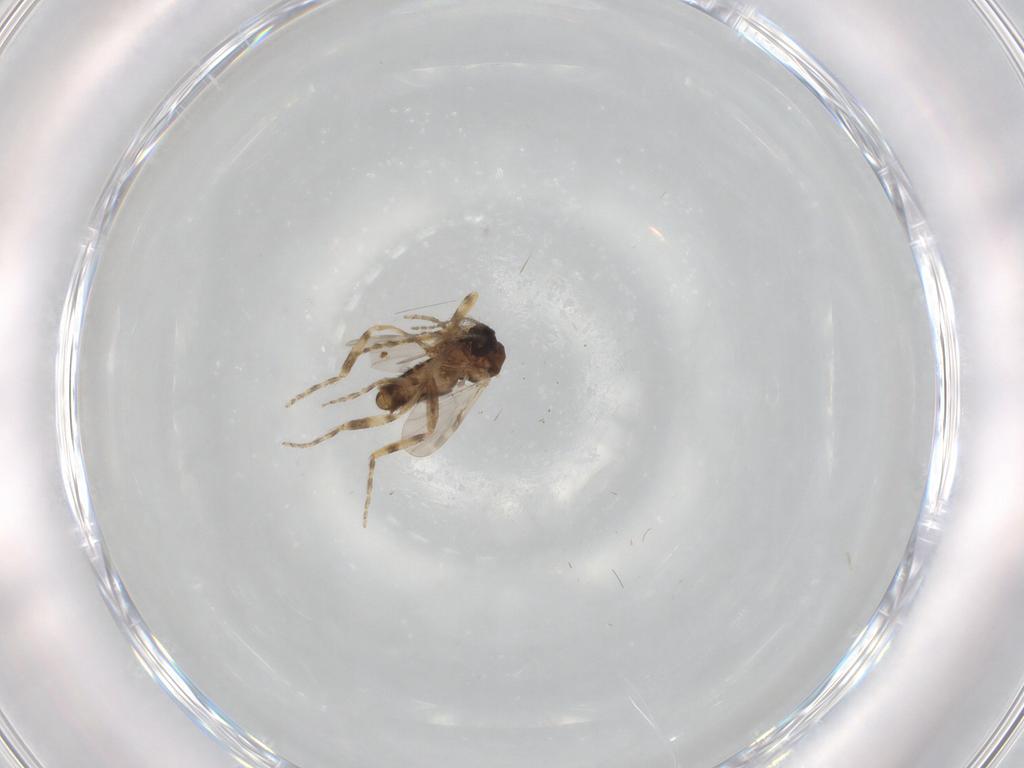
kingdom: Animalia
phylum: Arthropoda
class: Insecta
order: Diptera
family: Ceratopogonidae
